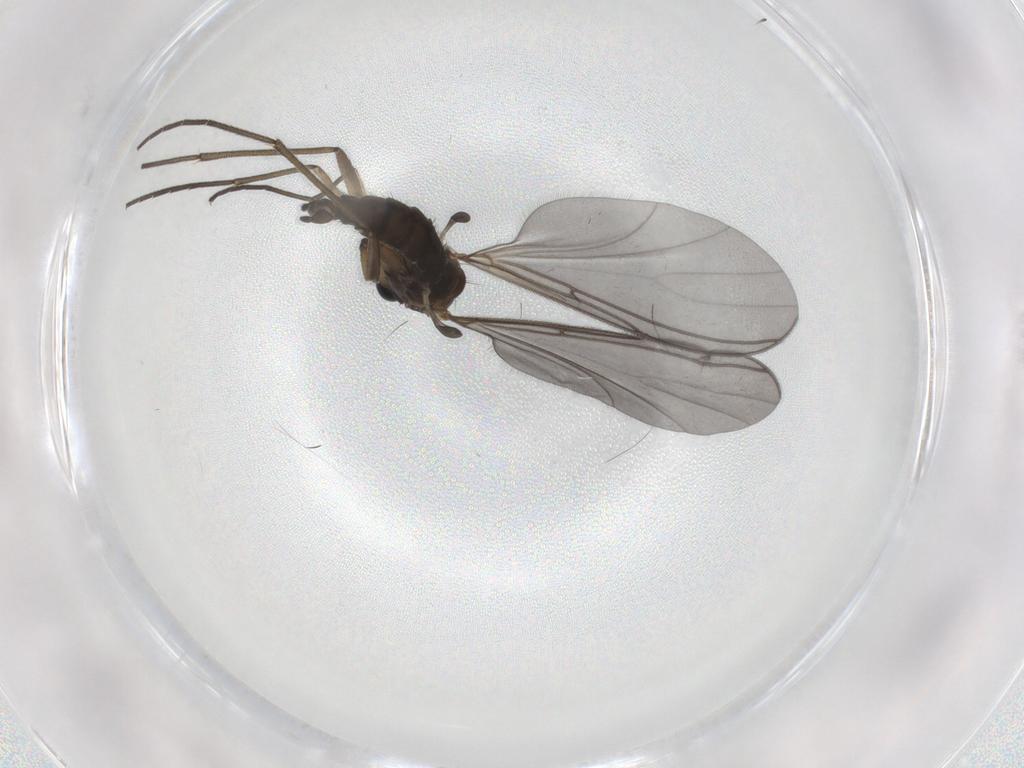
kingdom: Animalia
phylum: Arthropoda
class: Insecta
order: Diptera
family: Sciaridae
